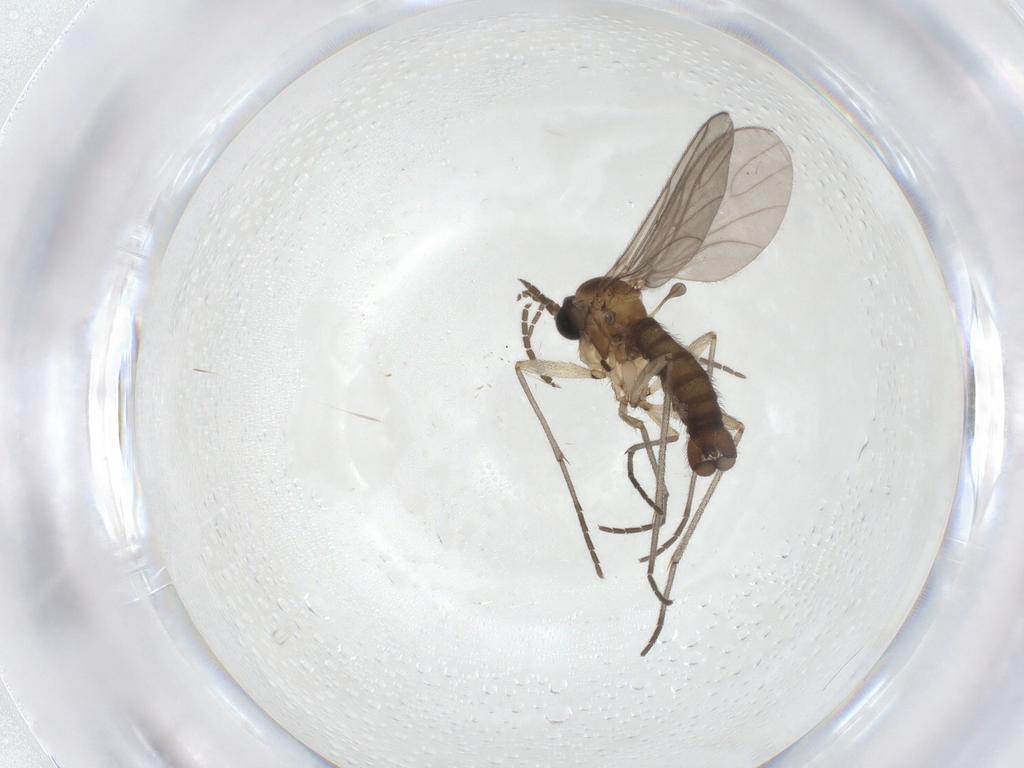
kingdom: Animalia
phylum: Arthropoda
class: Insecta
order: Diptera
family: Sciaridae
